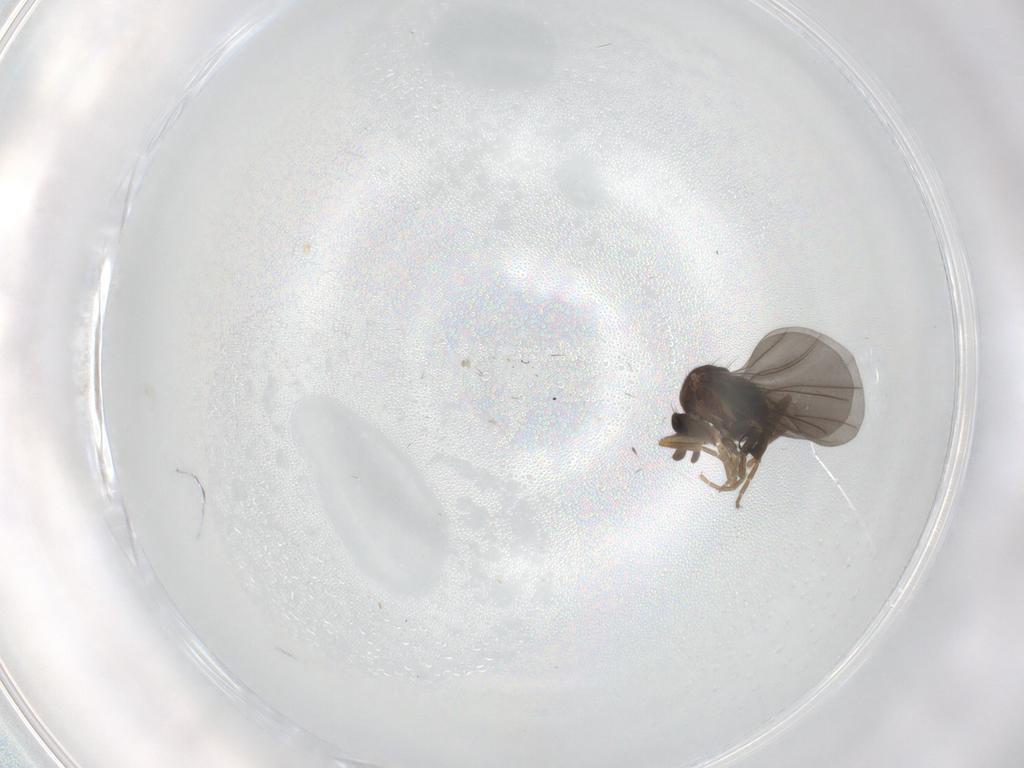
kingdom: Animalia
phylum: Arthropoda
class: Insecta
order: Diptera
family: Cecidomyiidae
